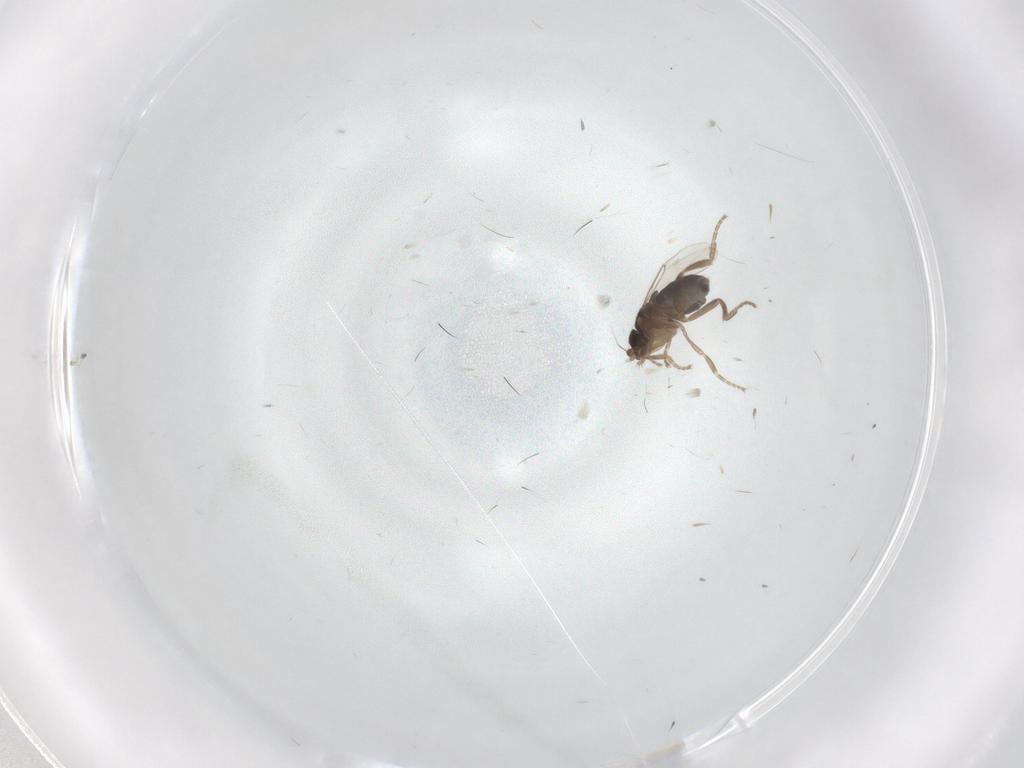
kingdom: Animalia
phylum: Arthropoda
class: Insecta
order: Diptera
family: Phoridae
